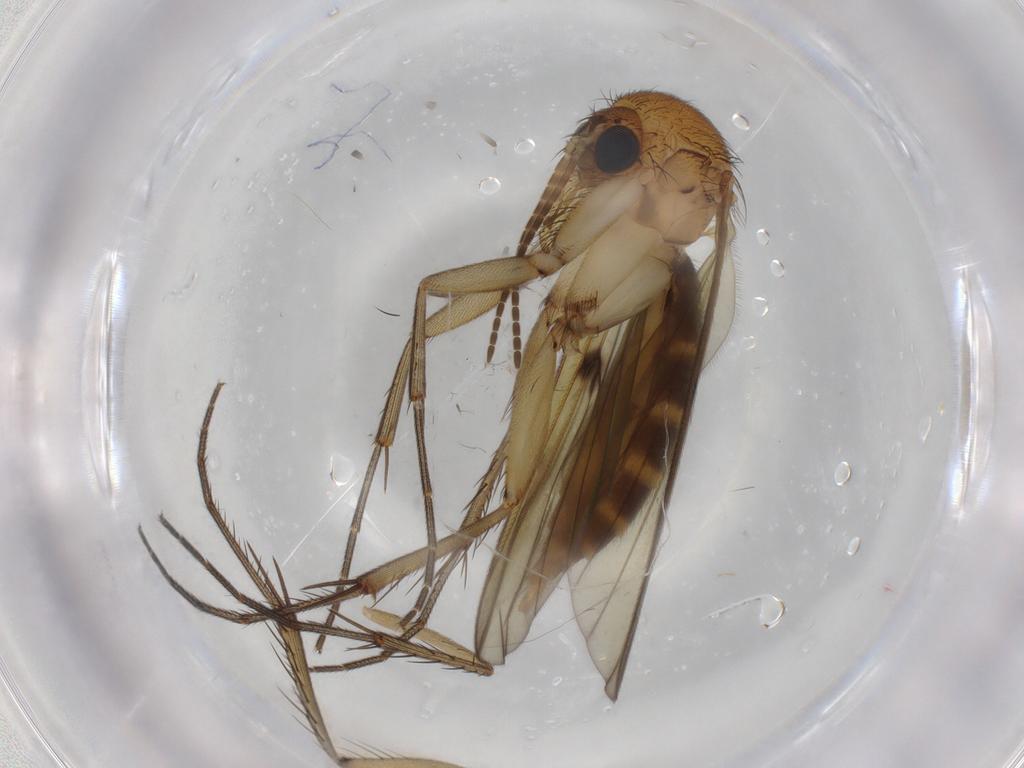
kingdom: Animalia
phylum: Arthropoda
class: Insecta
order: Diptera
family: Sciaridae
